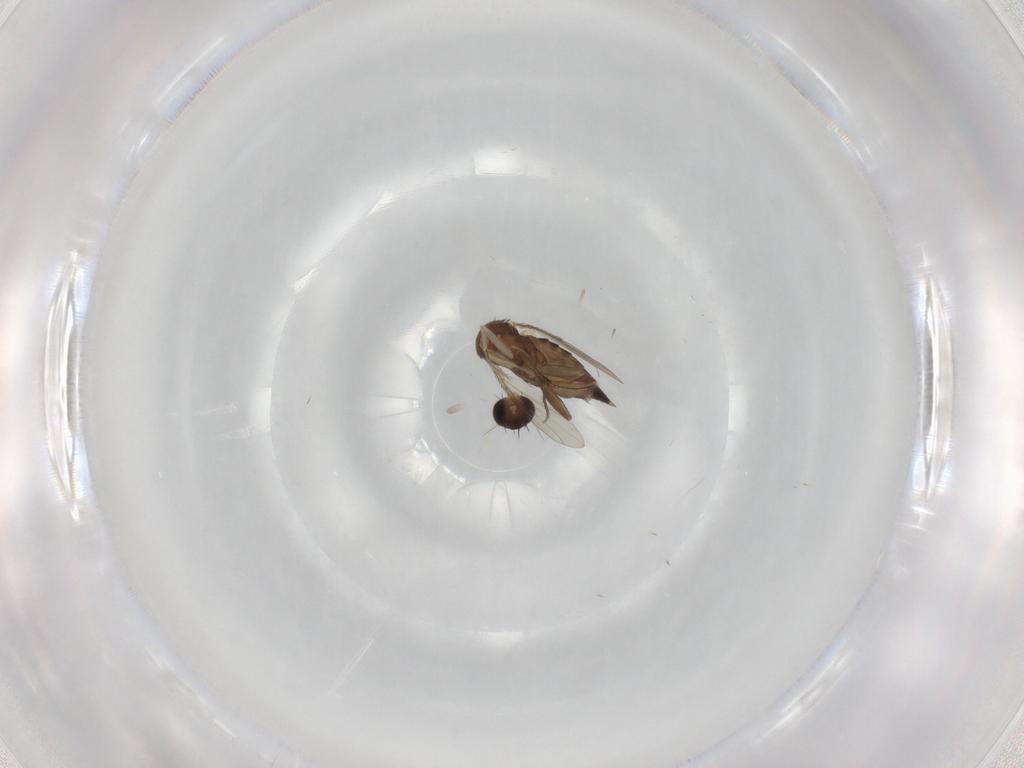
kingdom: Animalia
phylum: Arthropoda
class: Insecta
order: Diptera
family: Phoridae
